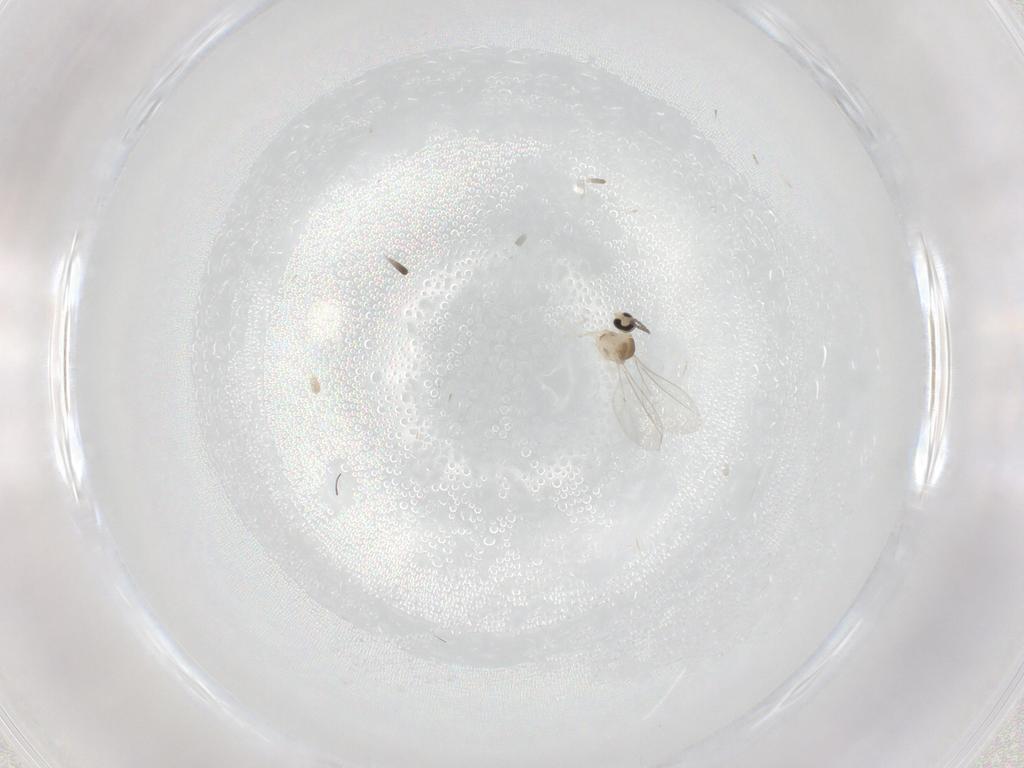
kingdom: Animalia
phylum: Arthropoda
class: Insecta
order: Diptera
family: Cecidomyiidae
